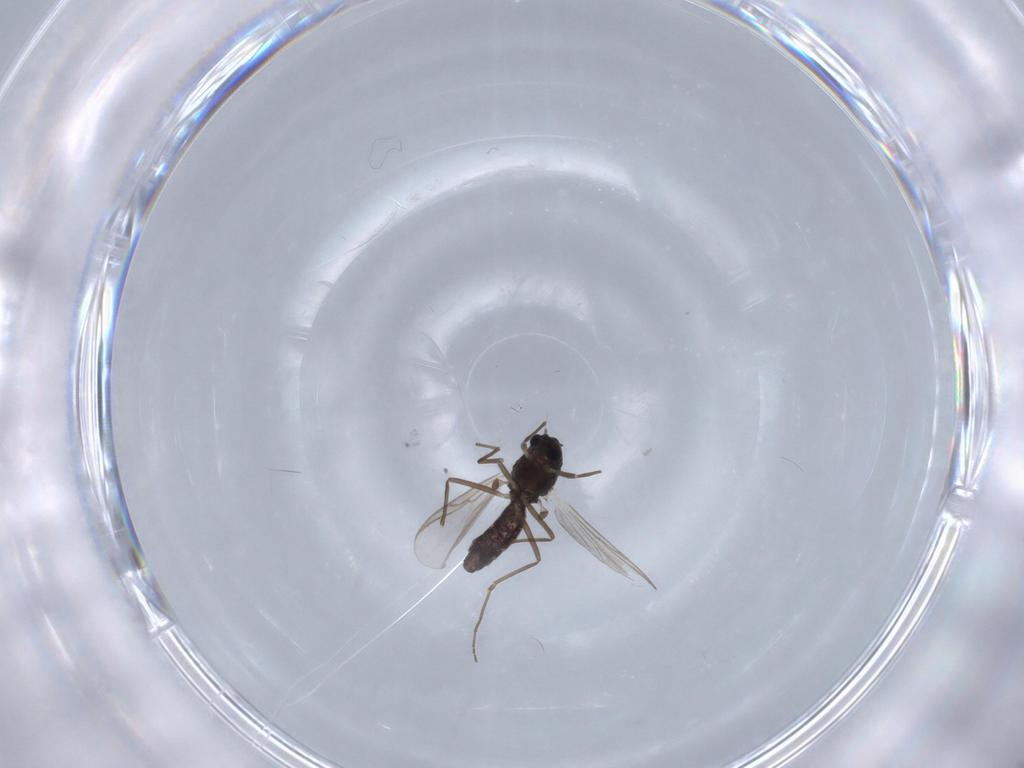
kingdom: Animalia
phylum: Arthropoda
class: Insecta
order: Diptera
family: Chironomidae
